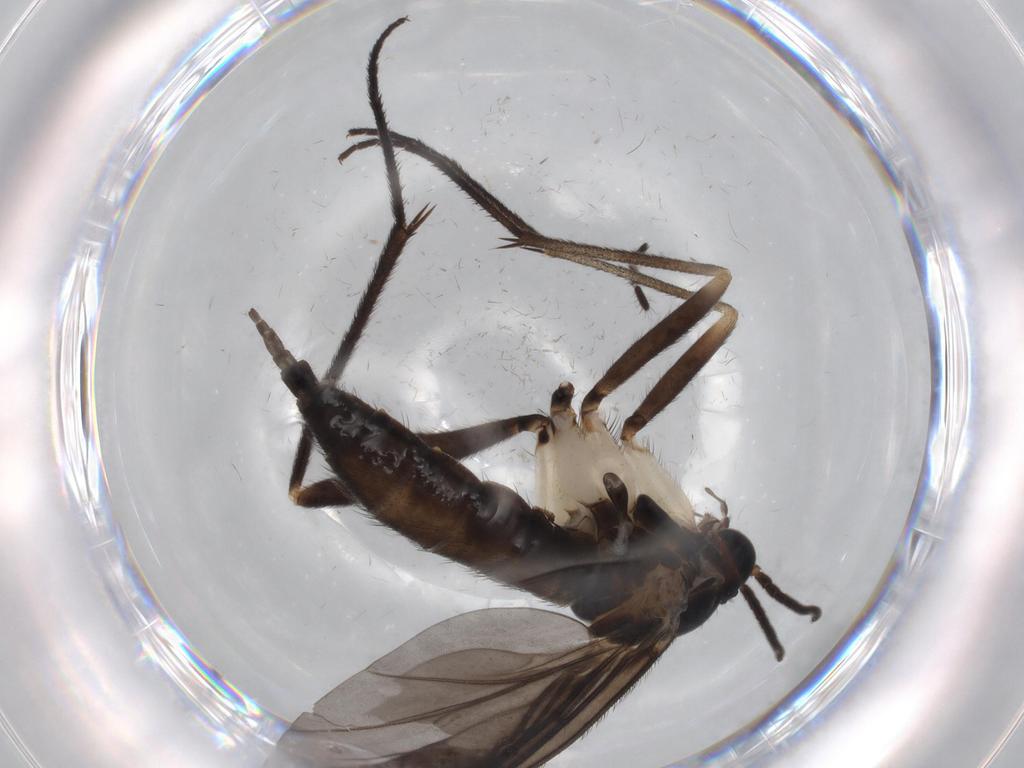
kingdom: Animalia
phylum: Arthropoda
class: Insecta
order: Diptera
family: Sciaridae
